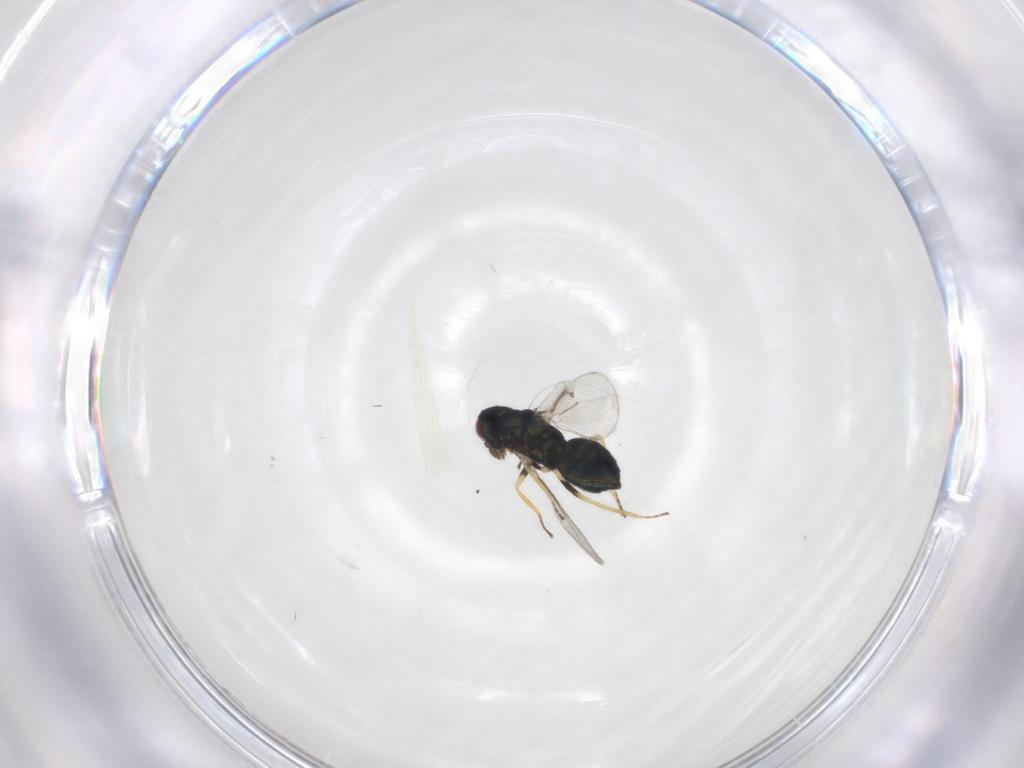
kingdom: Animalia
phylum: Arthropoda
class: Insecta
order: Hymenoptera
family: Eulophidae
